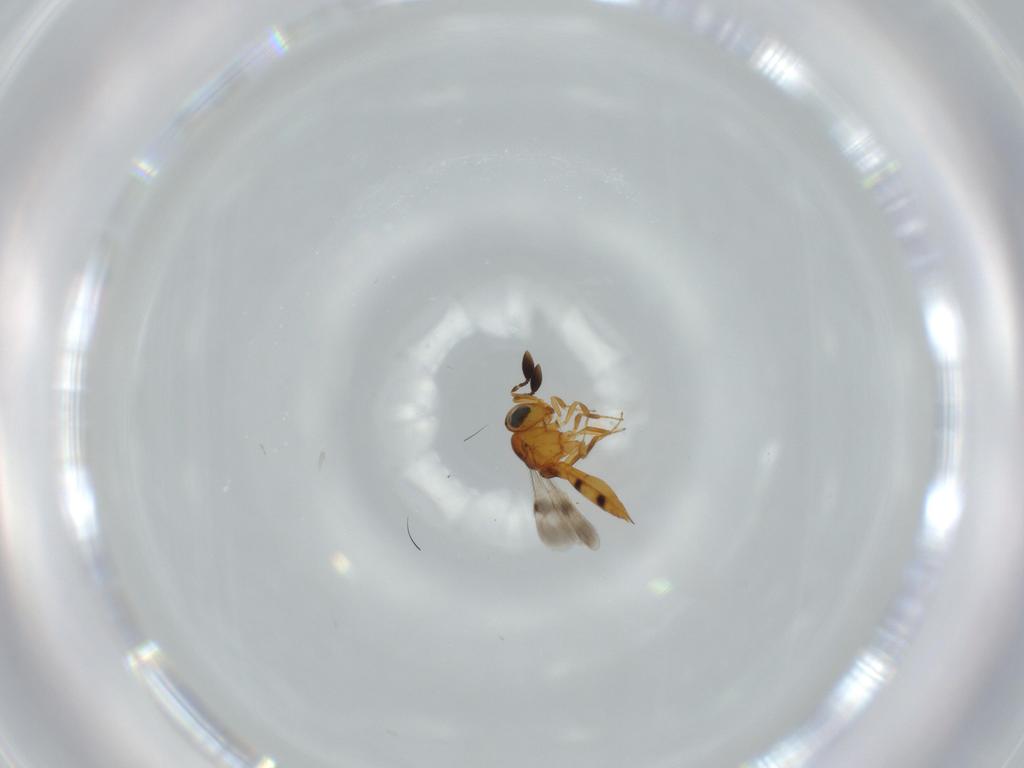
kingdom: Animalia
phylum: Arthropoda
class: Insecta
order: Hymenoptera
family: Scelionidae
